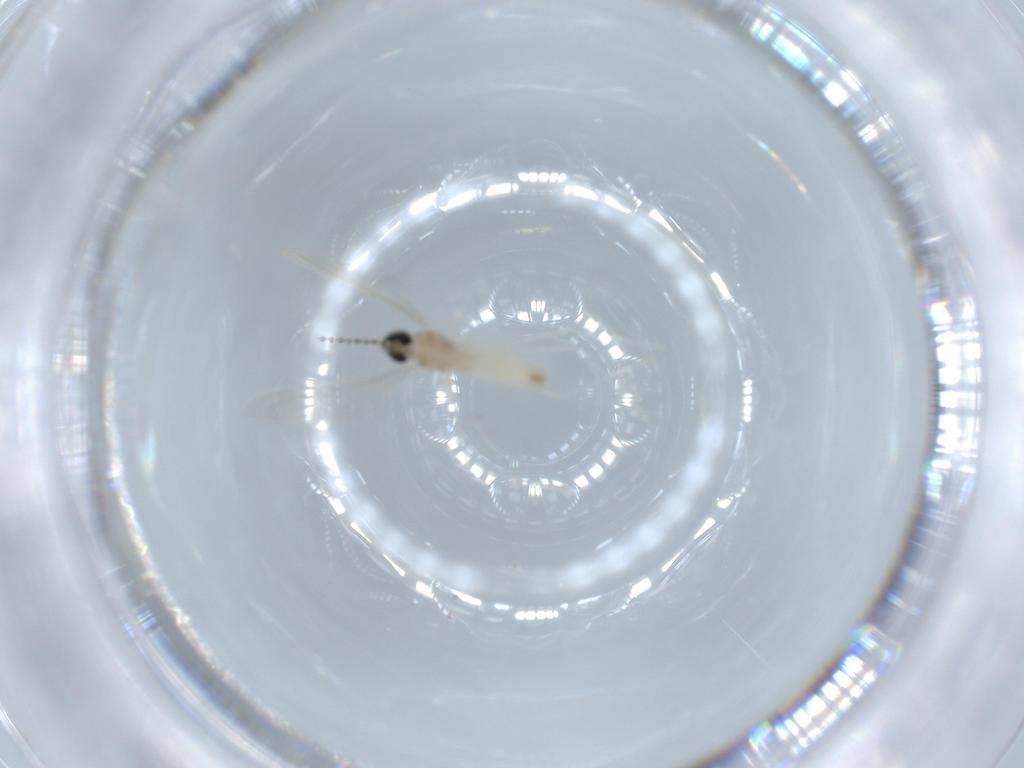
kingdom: Animalia
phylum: Arthropoda
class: Insecta
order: Diptera
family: Cecidomyiidae
